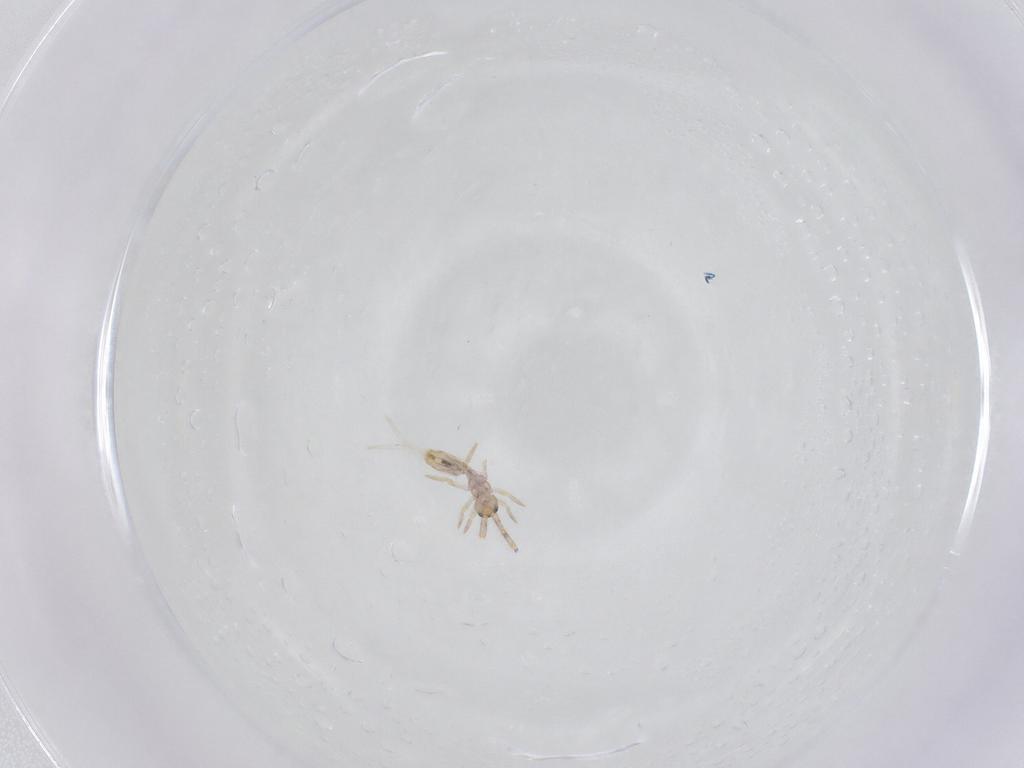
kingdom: Animalia
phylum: Arthropoda
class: Collembola
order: Entomobryomorpha
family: Entomobryidae
